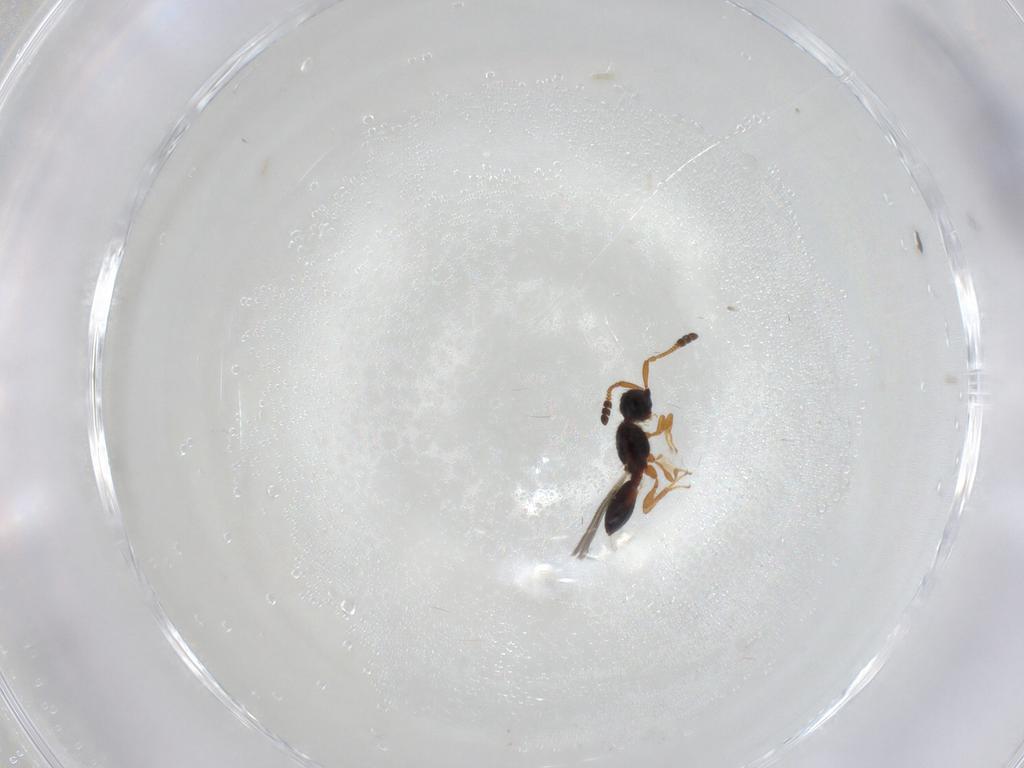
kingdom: Animalia
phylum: Arthropoda
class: Insecta
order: Hymenoptera
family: Diapriidae
